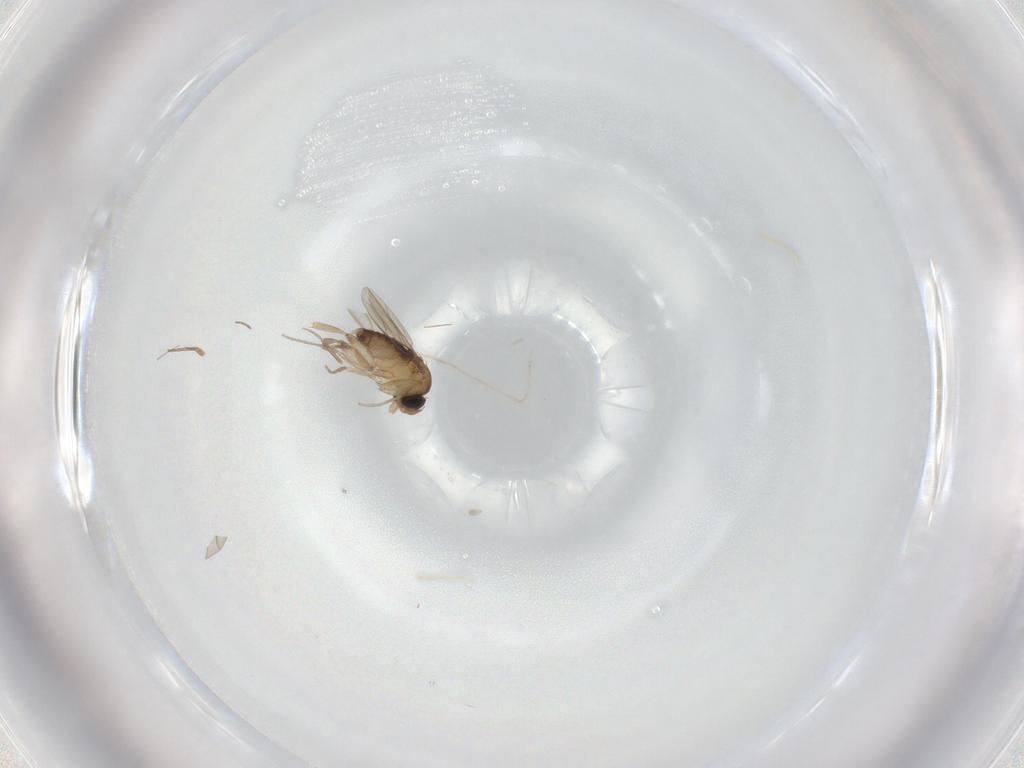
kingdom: Animalia
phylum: Arthropoda
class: Insecta
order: Diptera
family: Phoridae
